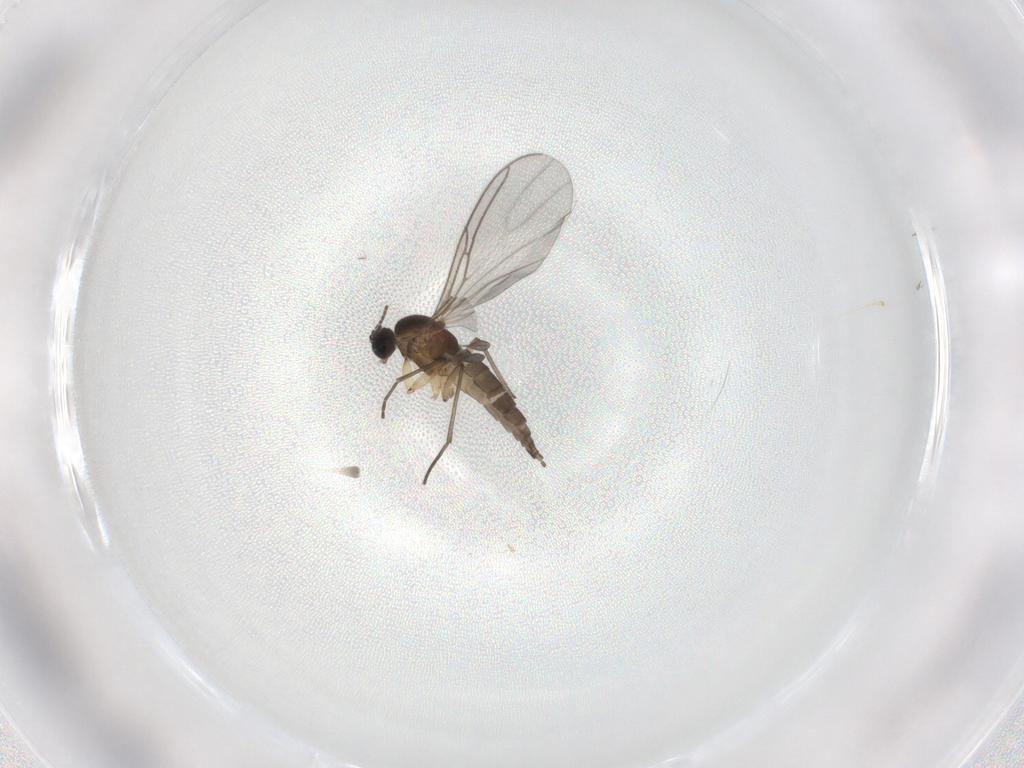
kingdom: Animalia
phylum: Arthropoda
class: Insecta
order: Diptera
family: Sciaridae
